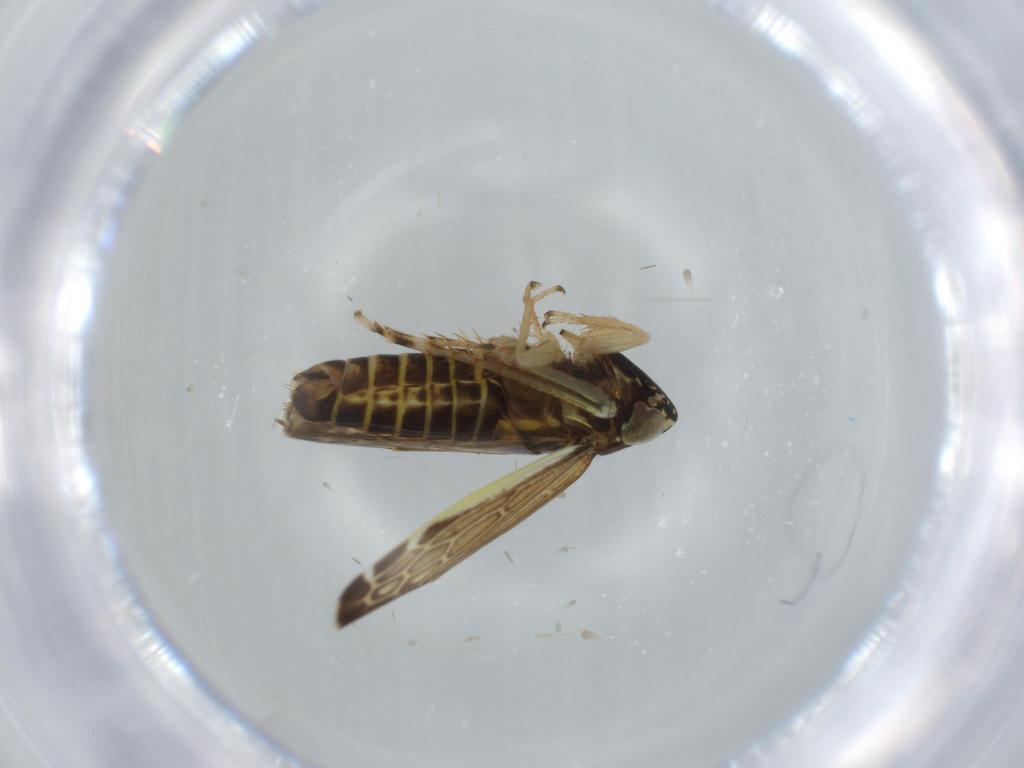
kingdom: Animalia
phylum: Arthropoda
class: Insecta
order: Hemiptera
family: Cicadellidae
